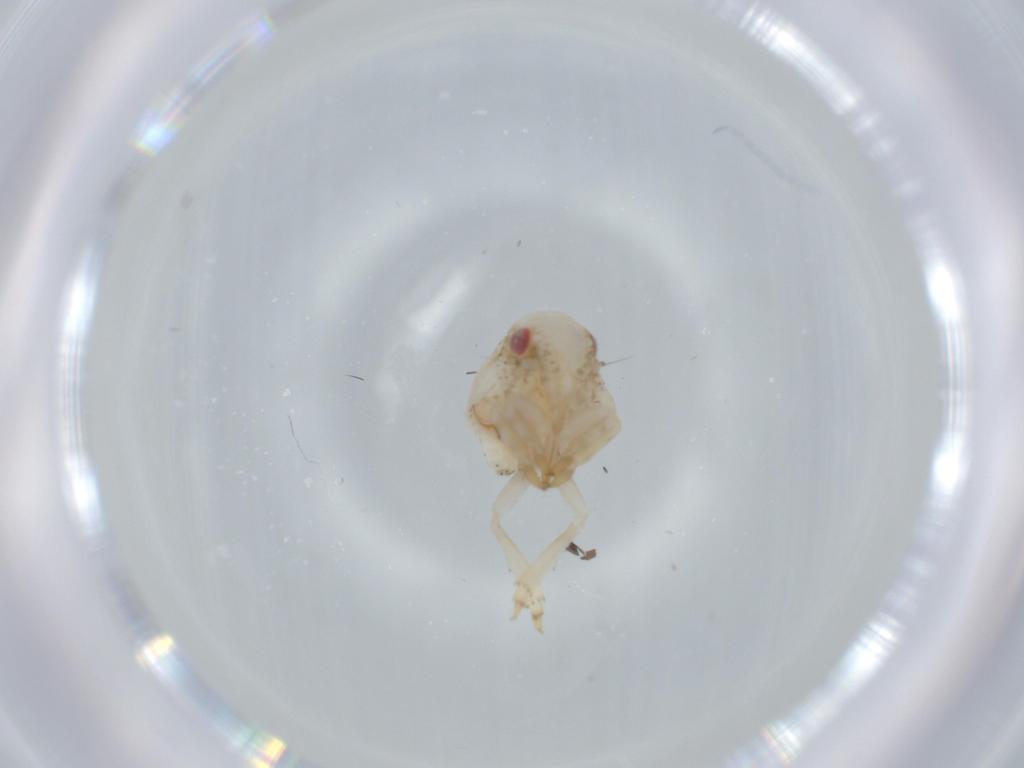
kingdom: Animalia
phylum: Arthropoda
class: Insecta
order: Hemiptera
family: Acanaloniidae
